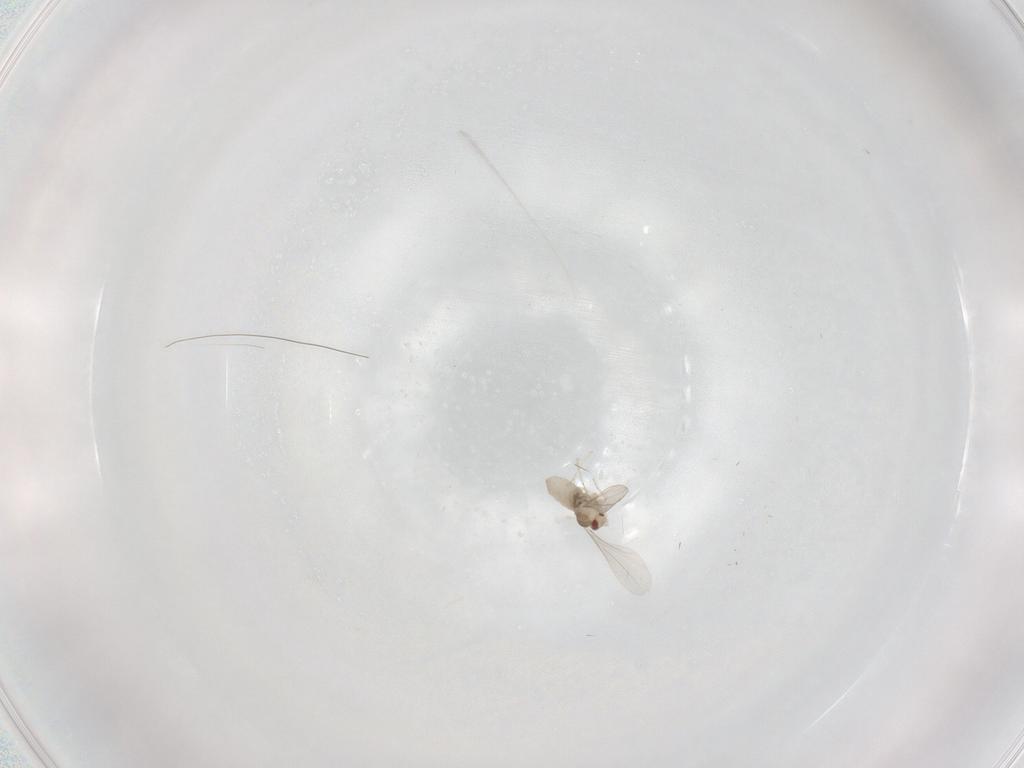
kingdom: Animalia
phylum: Arthropoda
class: Insecta
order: Diptera
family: Cecidomyiidae
